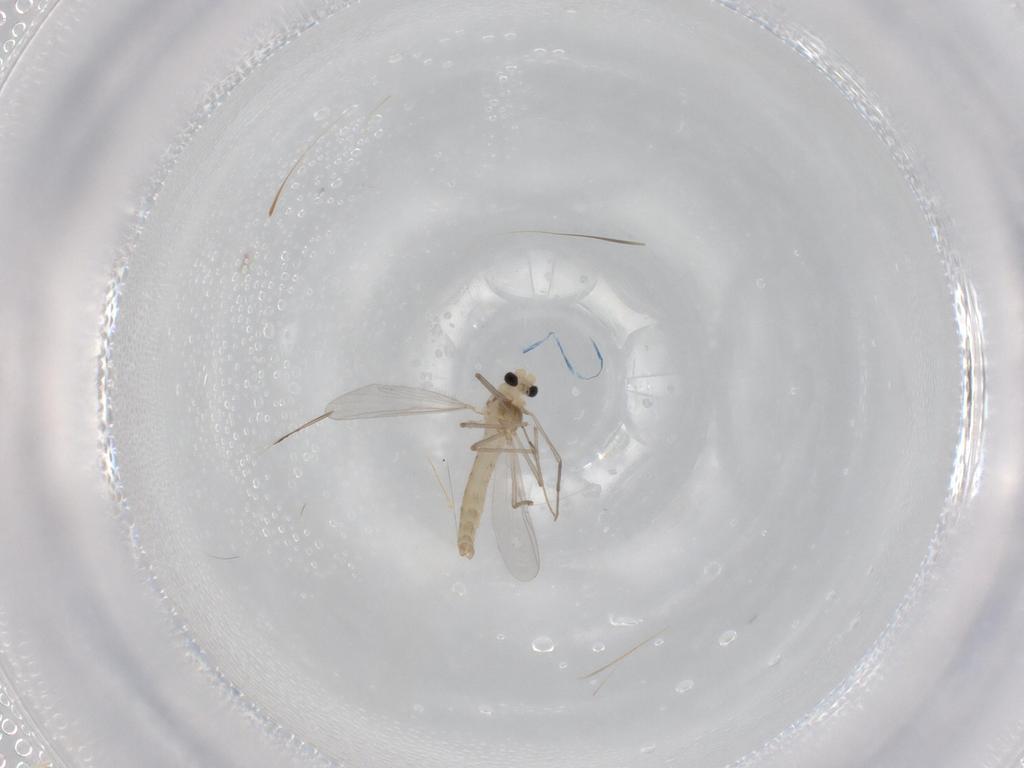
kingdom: Animalia
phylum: Arthropoda
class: Insecta
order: Diptera
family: Chironomidae
